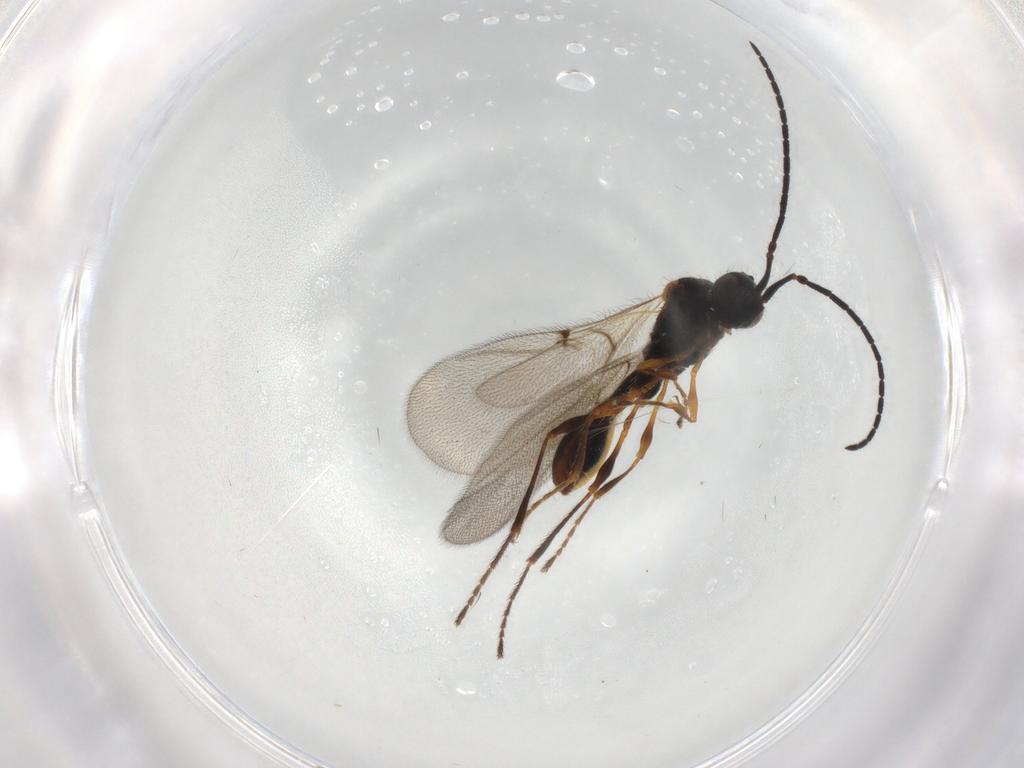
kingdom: Animalia
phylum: Arthropoda
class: Insecta
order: Hymenoptera
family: Diapriidae
